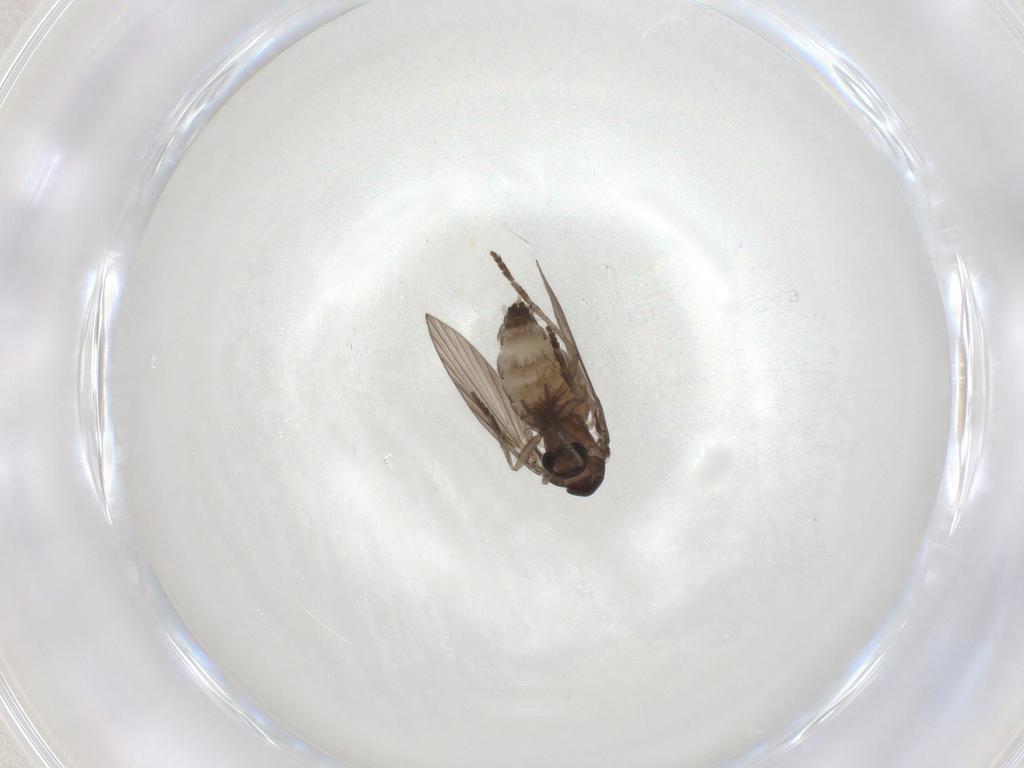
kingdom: Animalia
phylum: Arthropoda
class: Insecta
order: Diptera
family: Psychodidae
